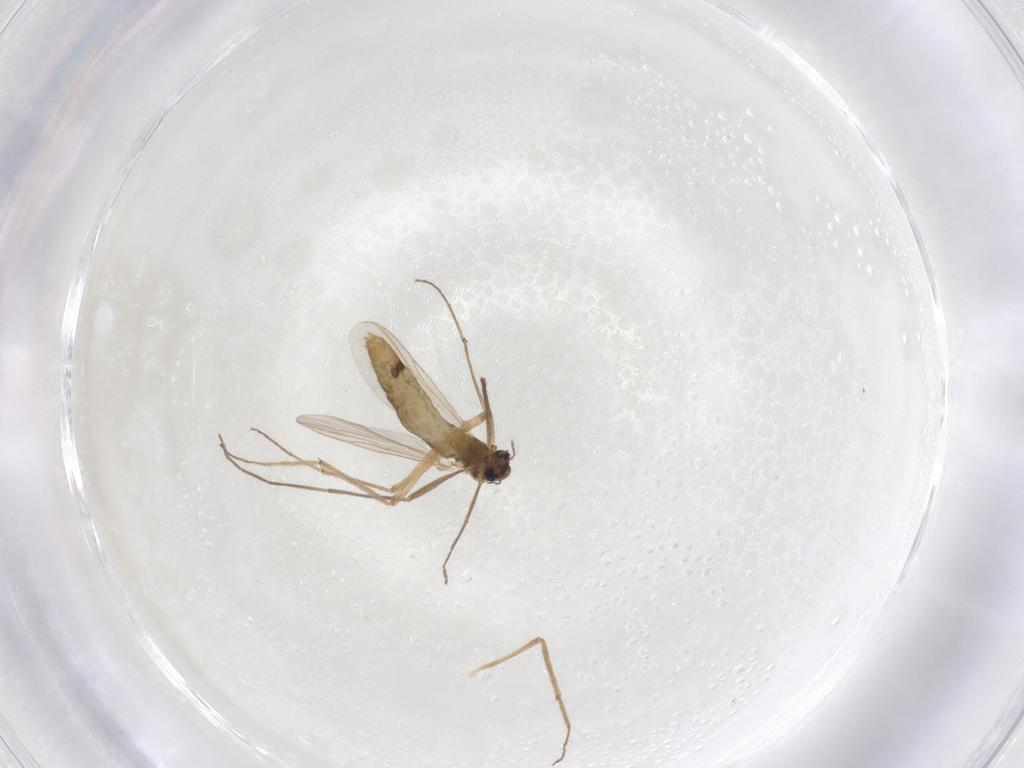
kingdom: Animalia
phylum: Arthropoda
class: Insecta
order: Diptera
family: Chironomidae
